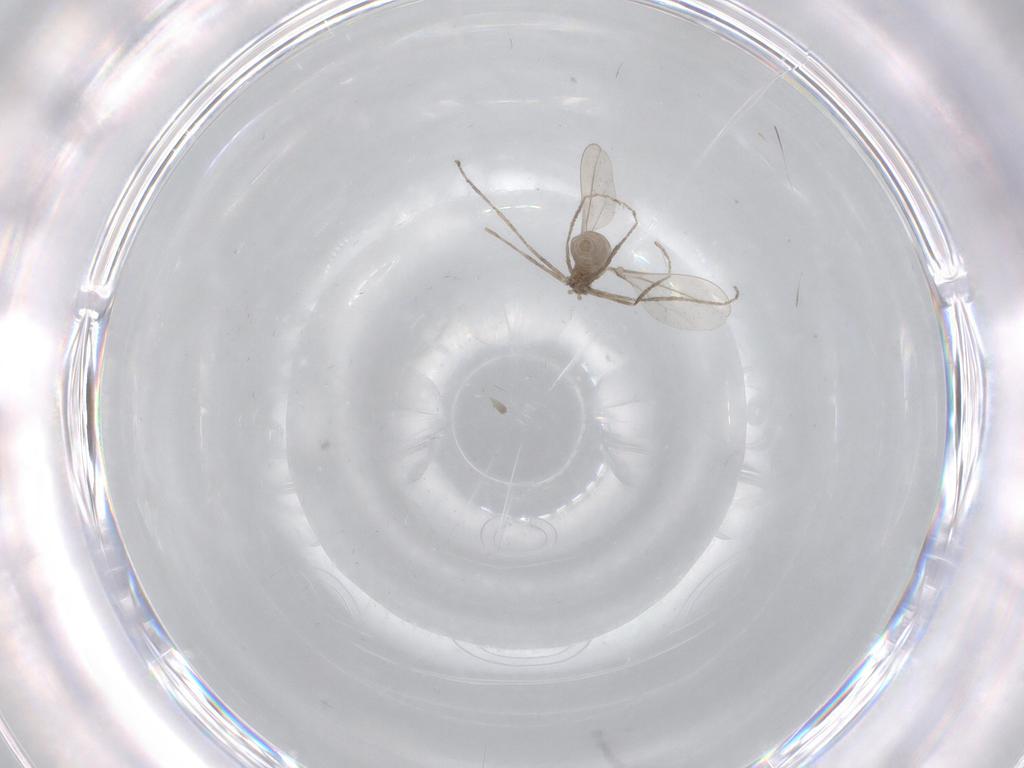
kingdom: Animalia
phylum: Arthropoda
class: Insecta
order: Diptera
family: Cecidomyiidae
